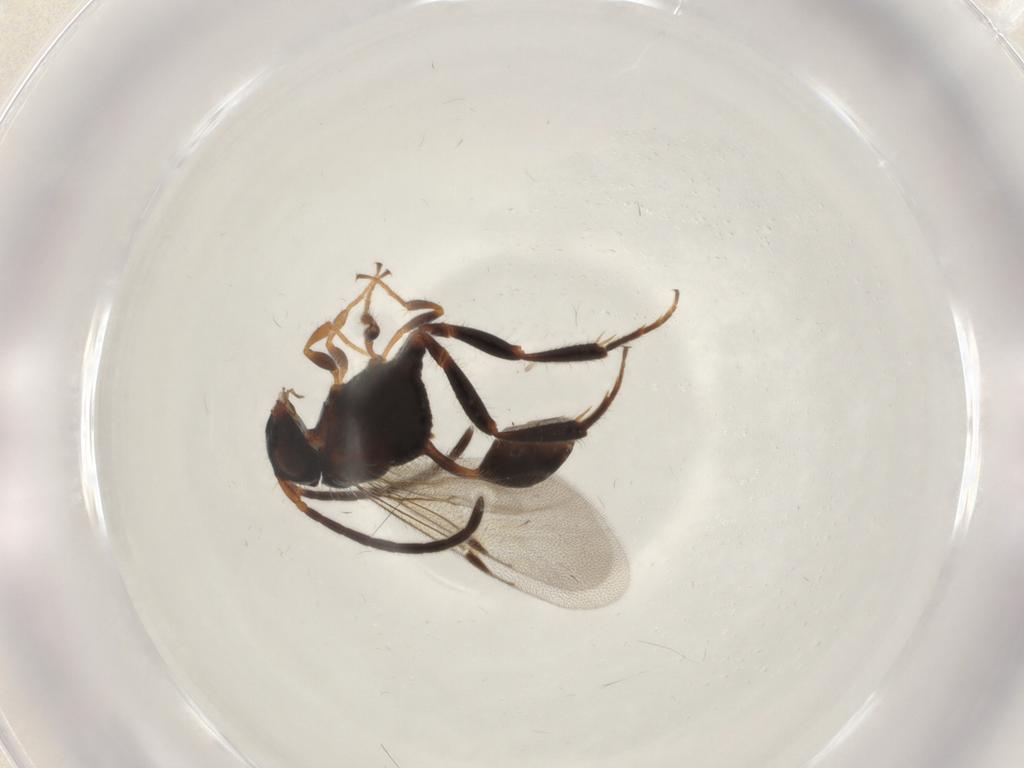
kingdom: Animalia
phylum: Arthropoda
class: Insecta
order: Hymenoptera
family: Evaniidae
